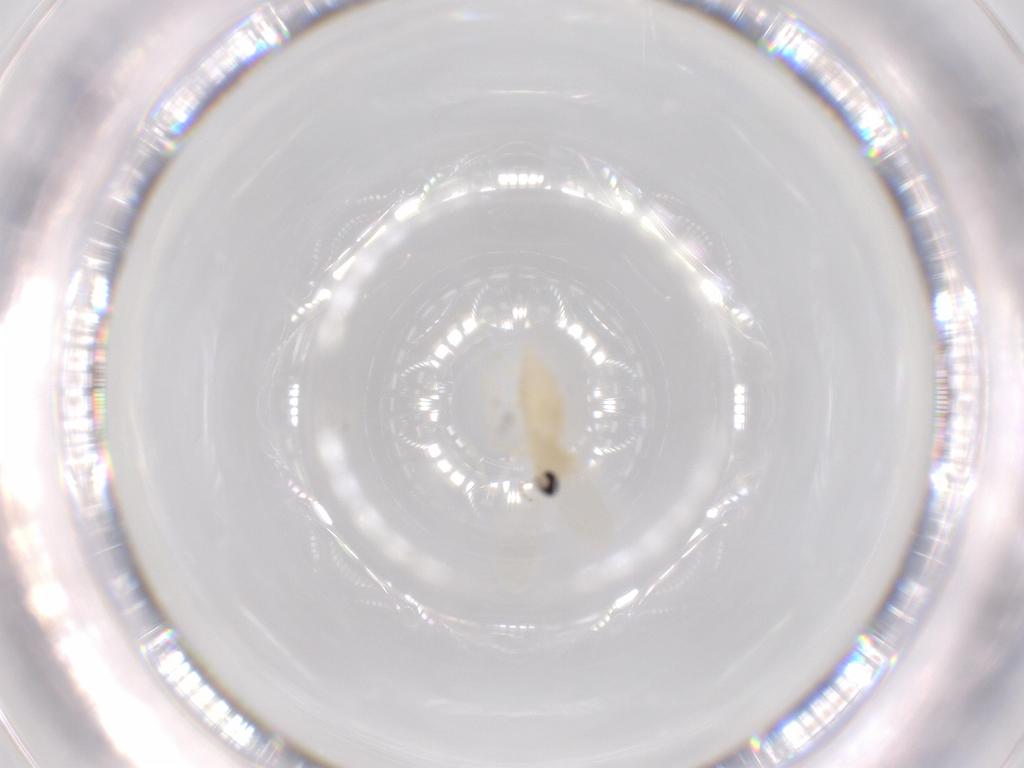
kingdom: Animalia
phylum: Arthropoda
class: Insecta
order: Diptera
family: Cecidomyiidae
